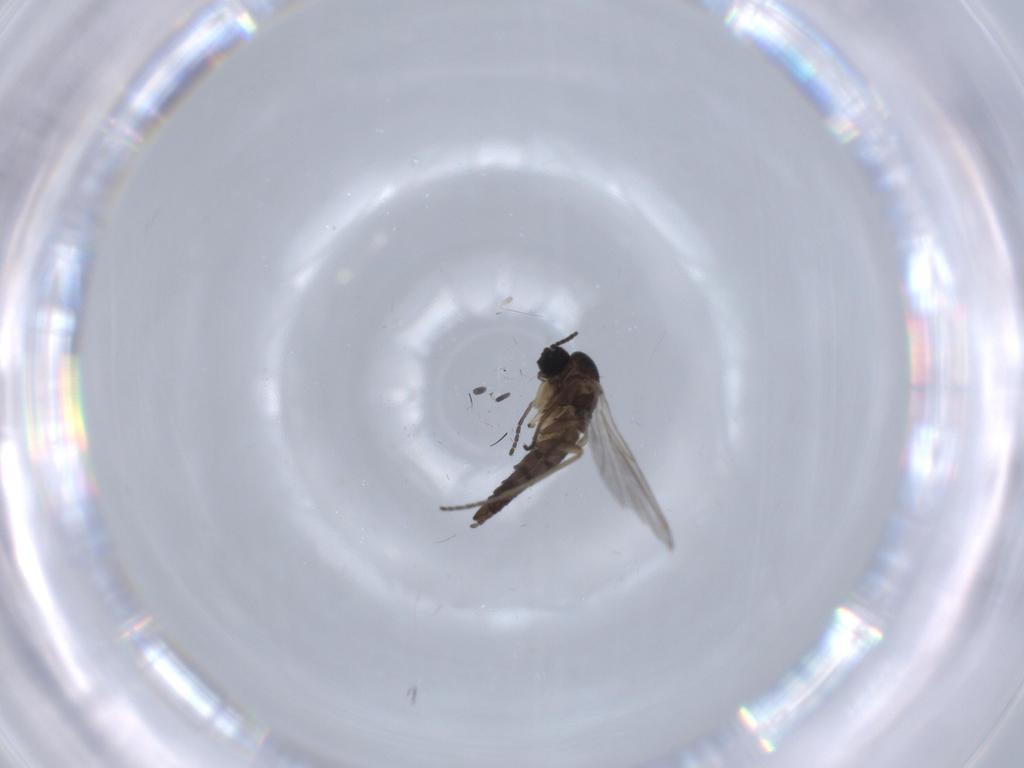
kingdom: Animalia
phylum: Arthropoda
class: Insecta
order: Diptera
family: Sciaridae
